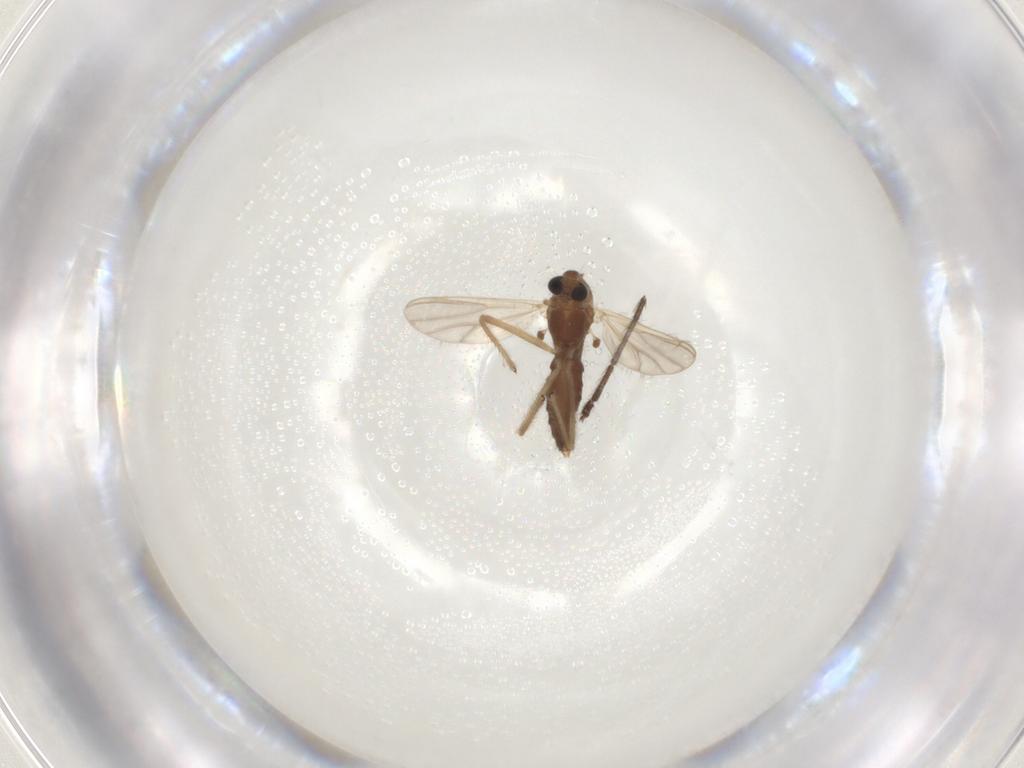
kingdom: Animalia
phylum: Arthropoda
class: Insecta
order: Diptera
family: Chironomidae
